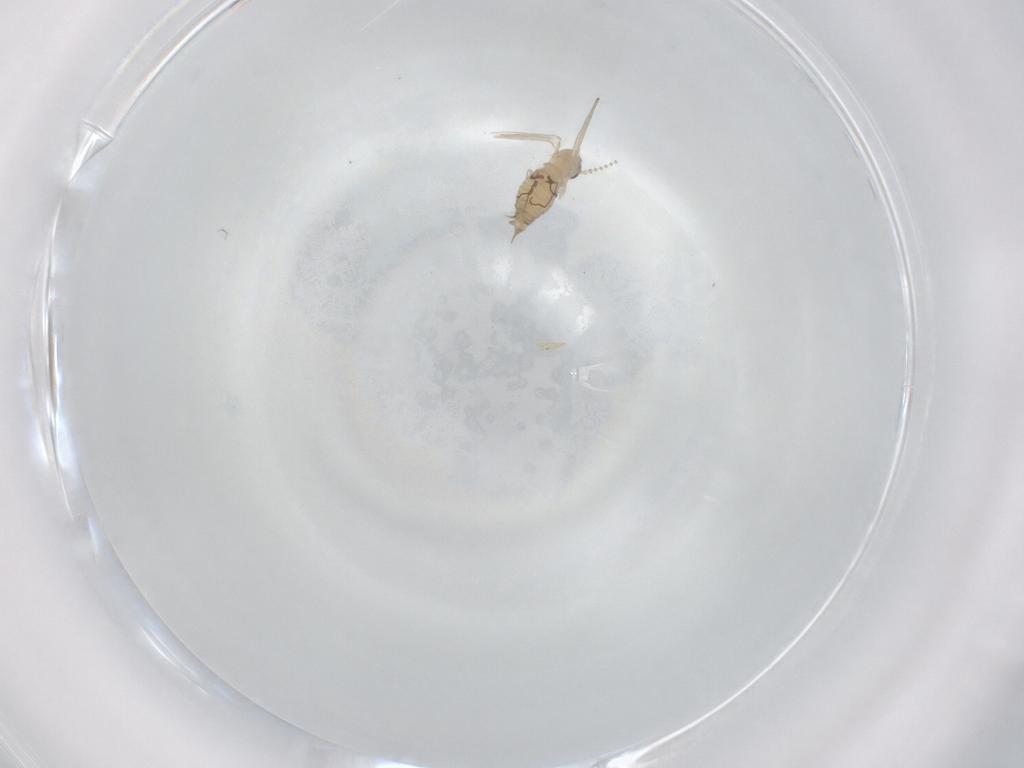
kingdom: Animalia
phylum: Arthropoda
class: Insecta
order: Diptera
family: Psychodidae
